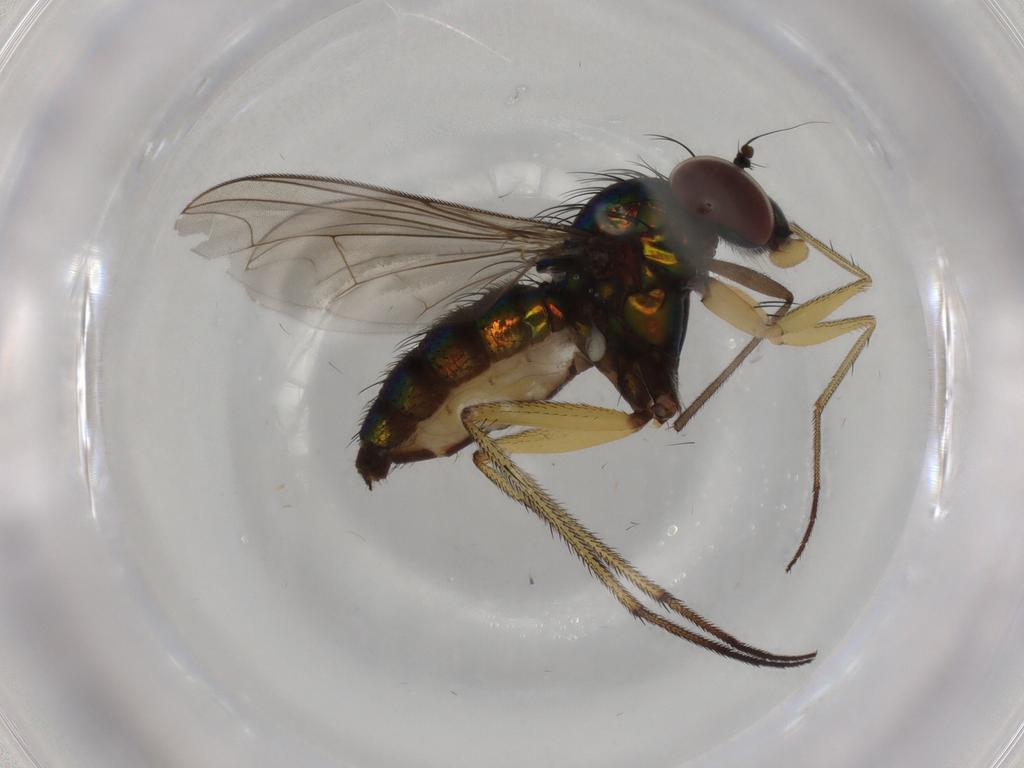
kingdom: Animalia
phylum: Arthropoda
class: Insecta
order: Diptera
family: Dolichopodidae
